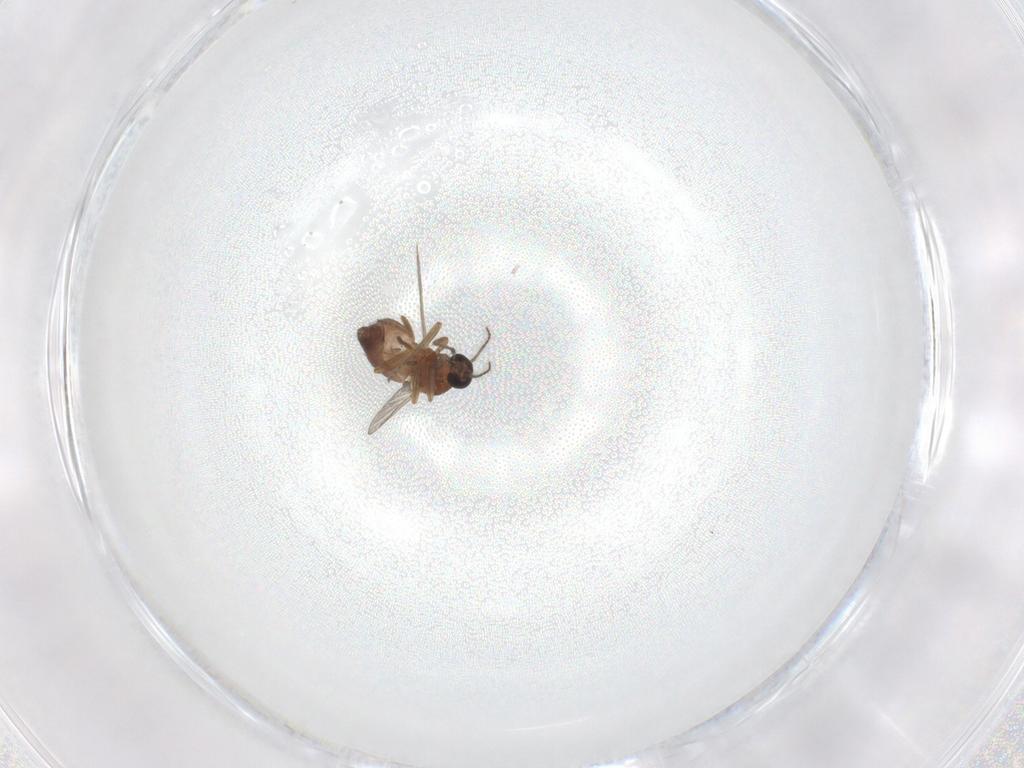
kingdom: Animalia
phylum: Arthropoda
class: Insecta
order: Diptera
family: Ceratopogonidae
